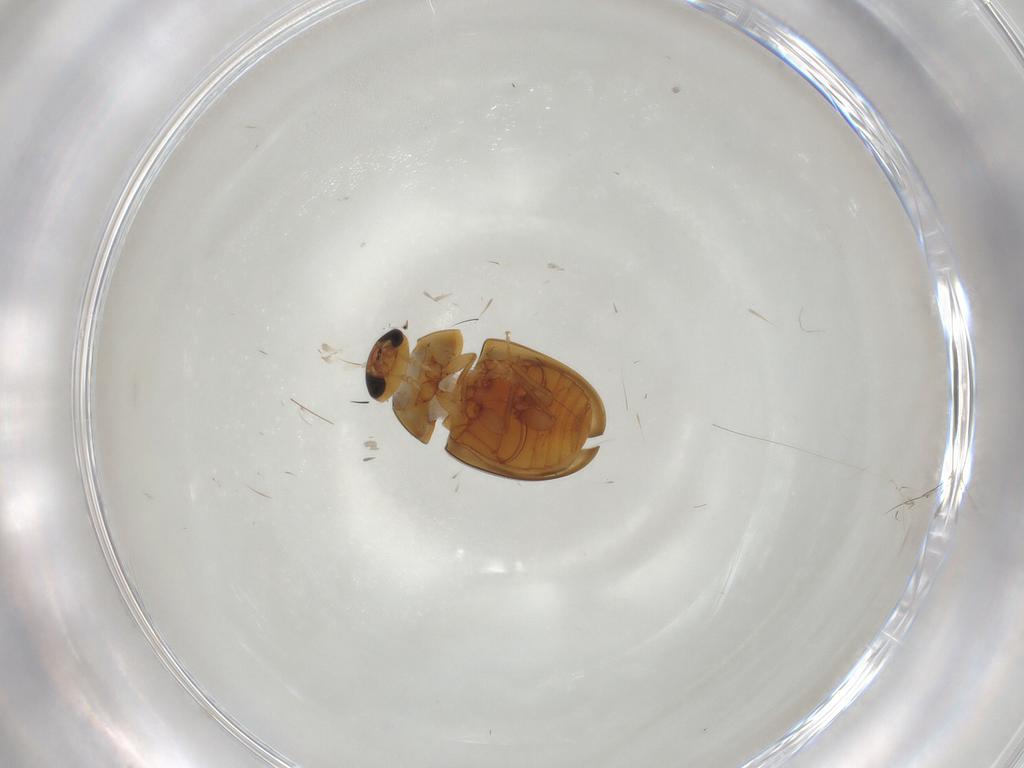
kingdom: Animalia
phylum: Arthropoda
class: Insecta
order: Coleoptera
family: Phalacridae
